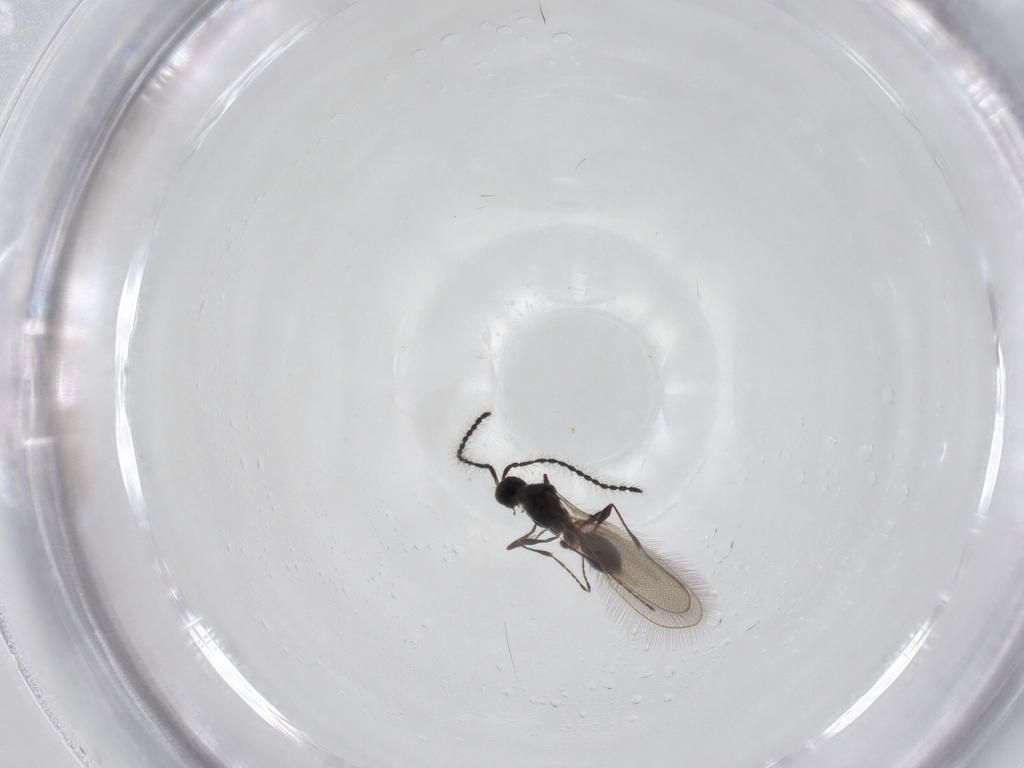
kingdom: Animalia
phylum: Arthropoda
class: Insecta
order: Hymenoptera
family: Diapriidae
